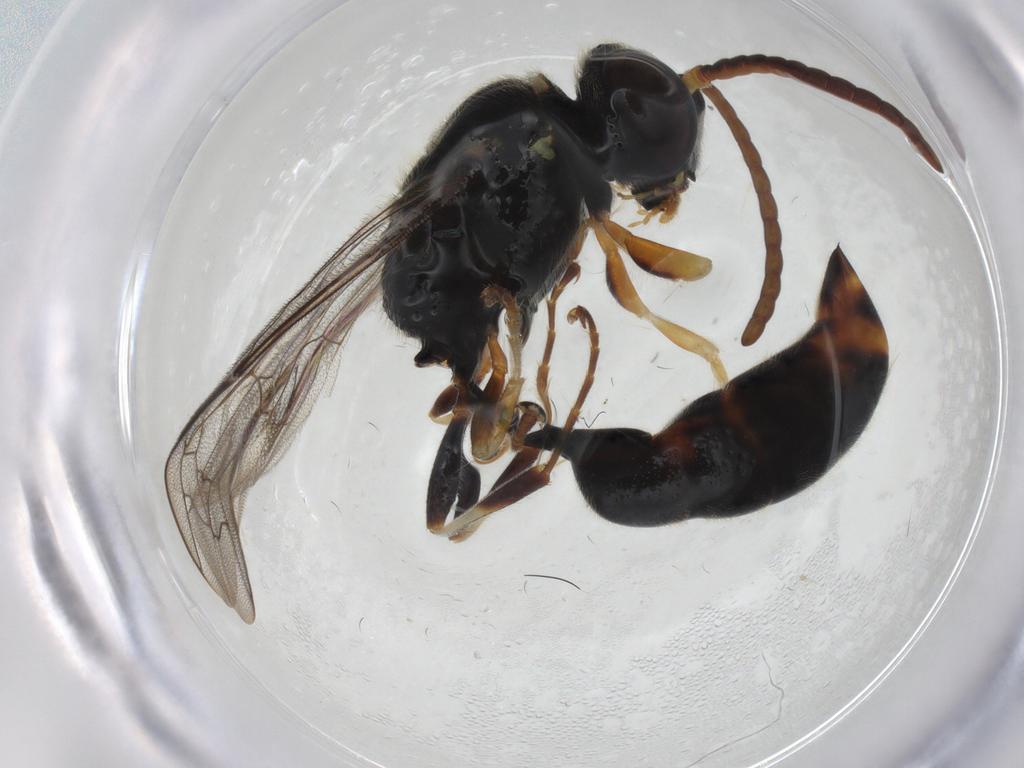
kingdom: Animalia
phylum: Arthropoda
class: Insecta
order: Hymenoptera
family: Crabronidae
